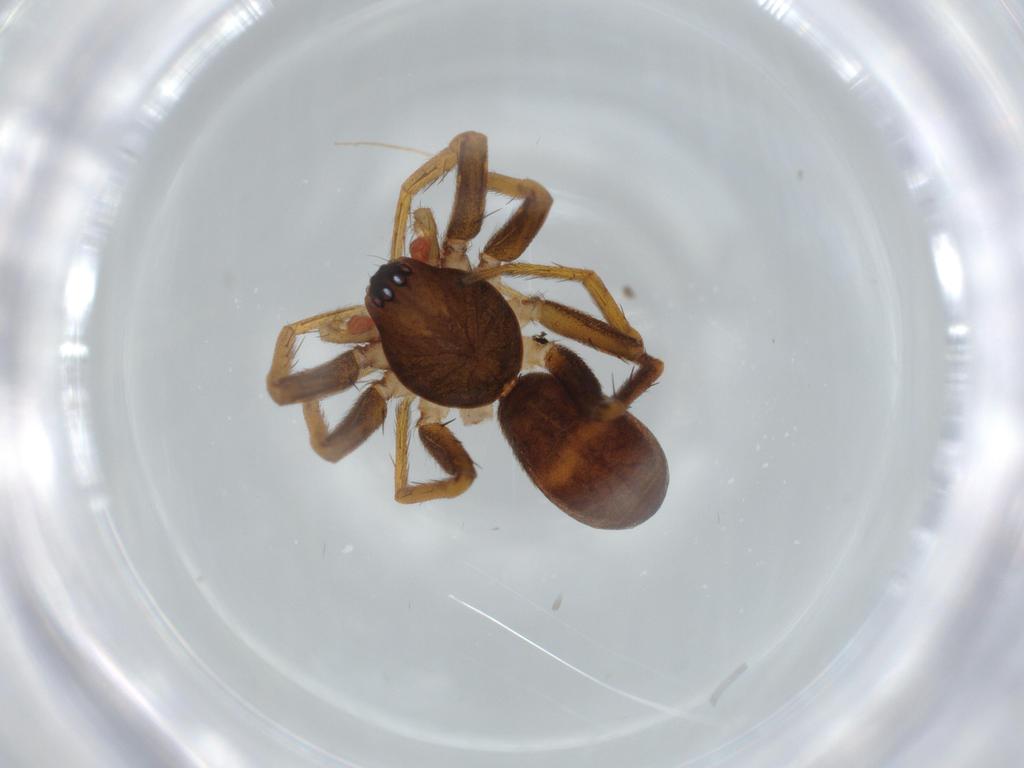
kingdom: Animalia
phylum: Arthropoda
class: Arachnida
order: Araneae
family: Corinnidae
